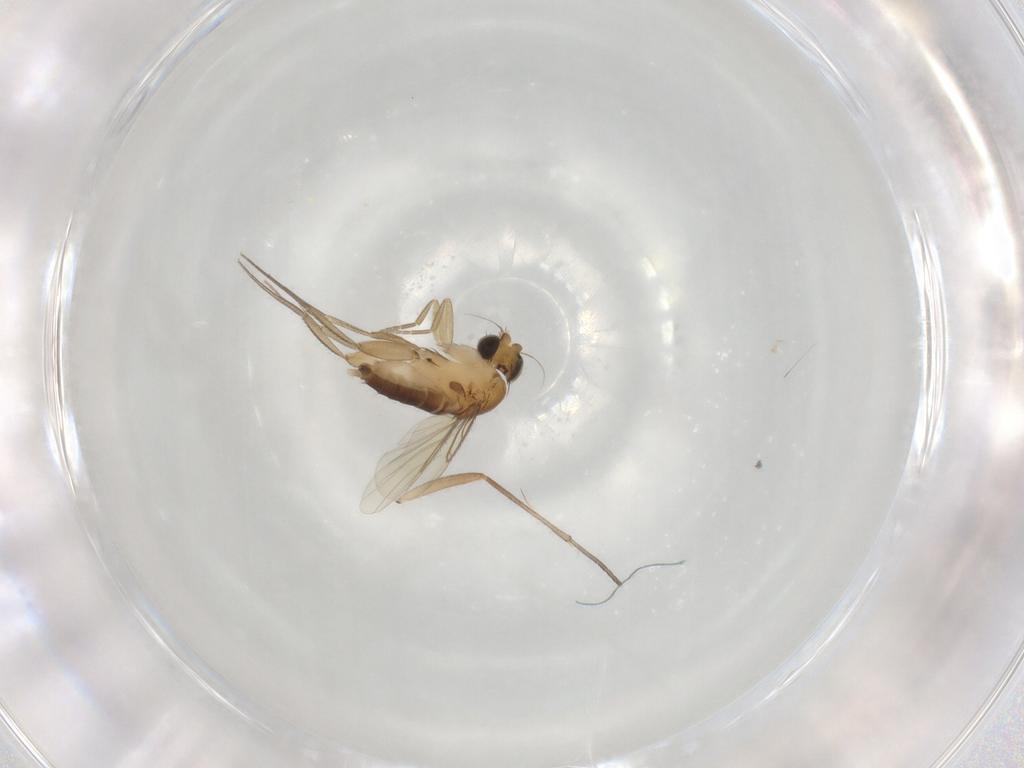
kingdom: Animalia
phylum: Arthropoda
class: Insecta
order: Diptera
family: Phoridae
